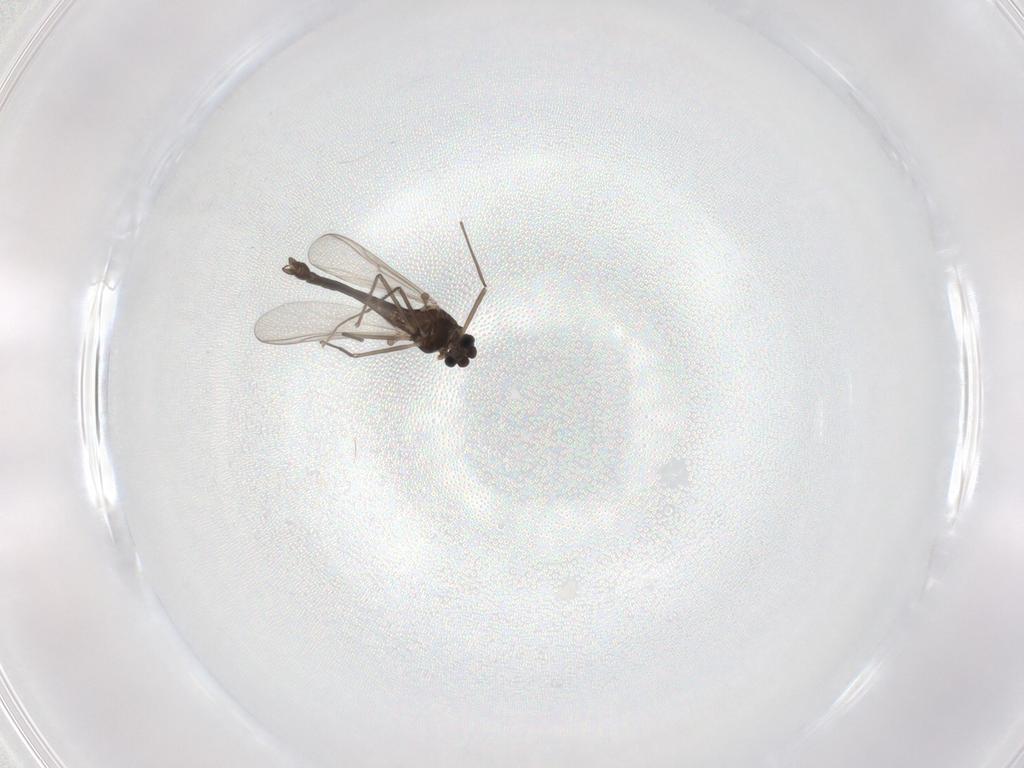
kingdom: Animalia
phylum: Arthropoda
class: Insecta
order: Diptera
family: Chironomidae
